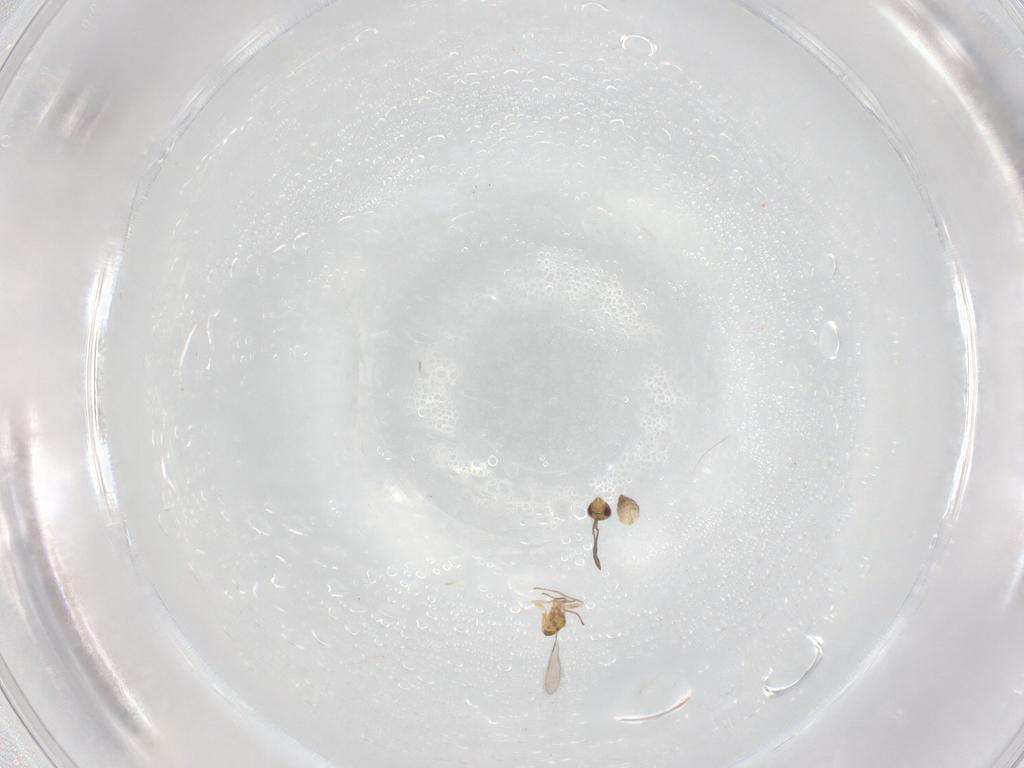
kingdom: Animalia
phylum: Arthropoda
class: Insecta
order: Hymenoptera
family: Mymaridae
